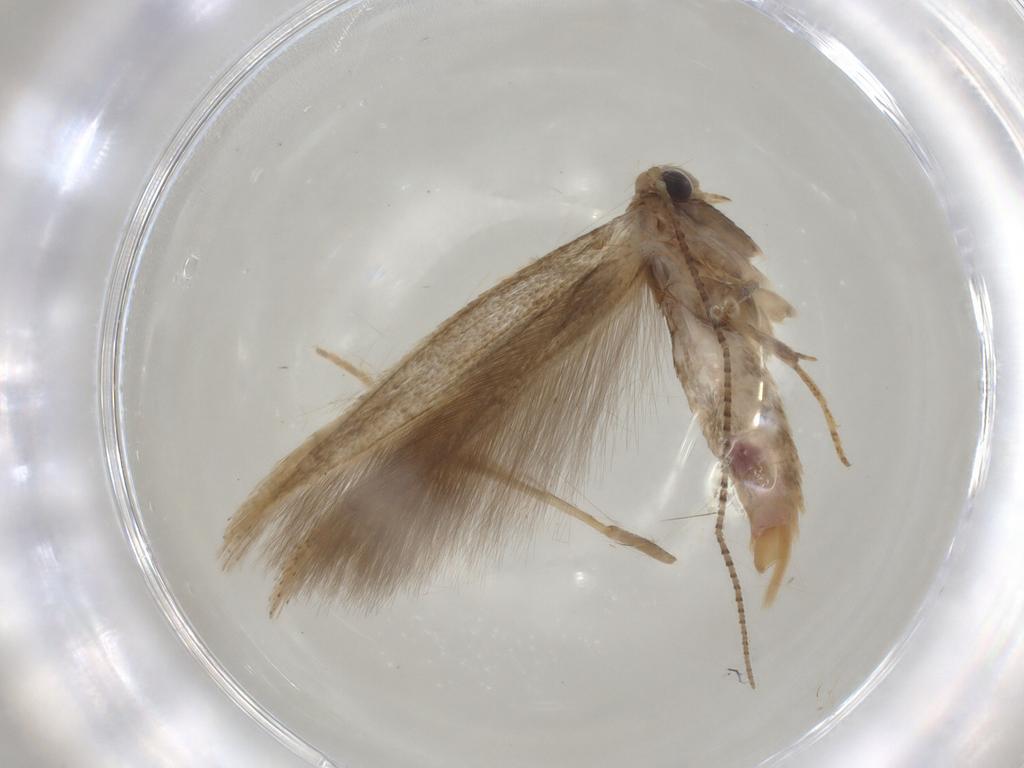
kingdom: Animalia
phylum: Arthropoda
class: Insecta
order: Lepidoptera
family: Bedelliidae
